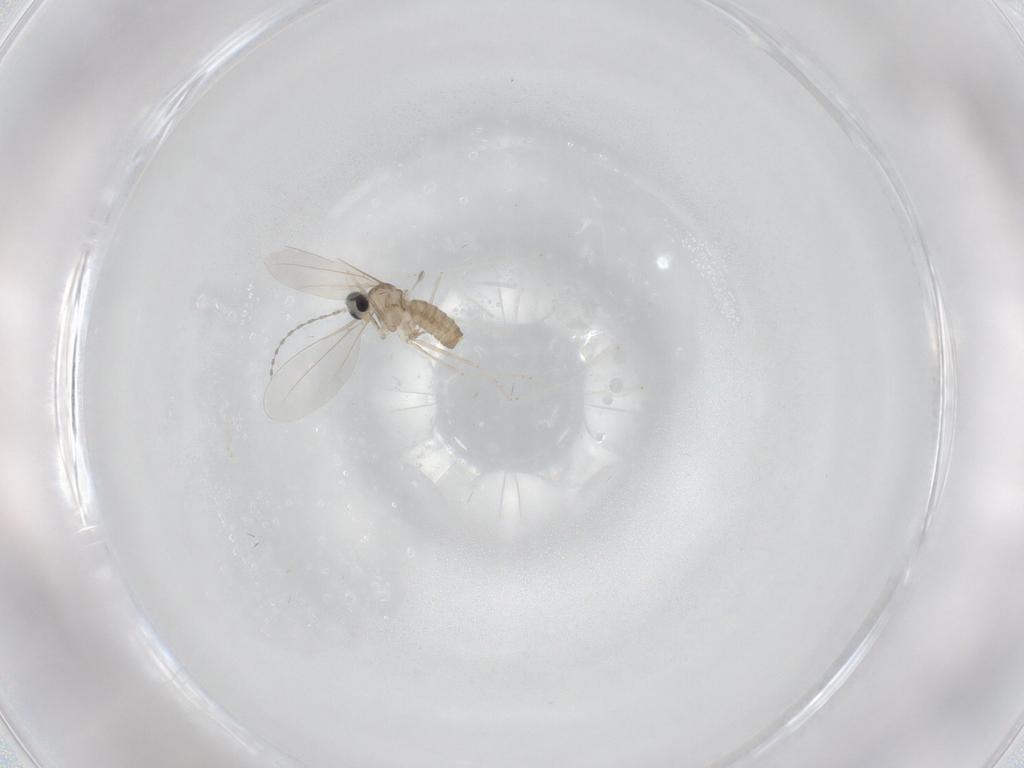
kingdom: Animalia
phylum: Arthropoda
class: Insecta
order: Diptera
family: Cecidomyiidae
